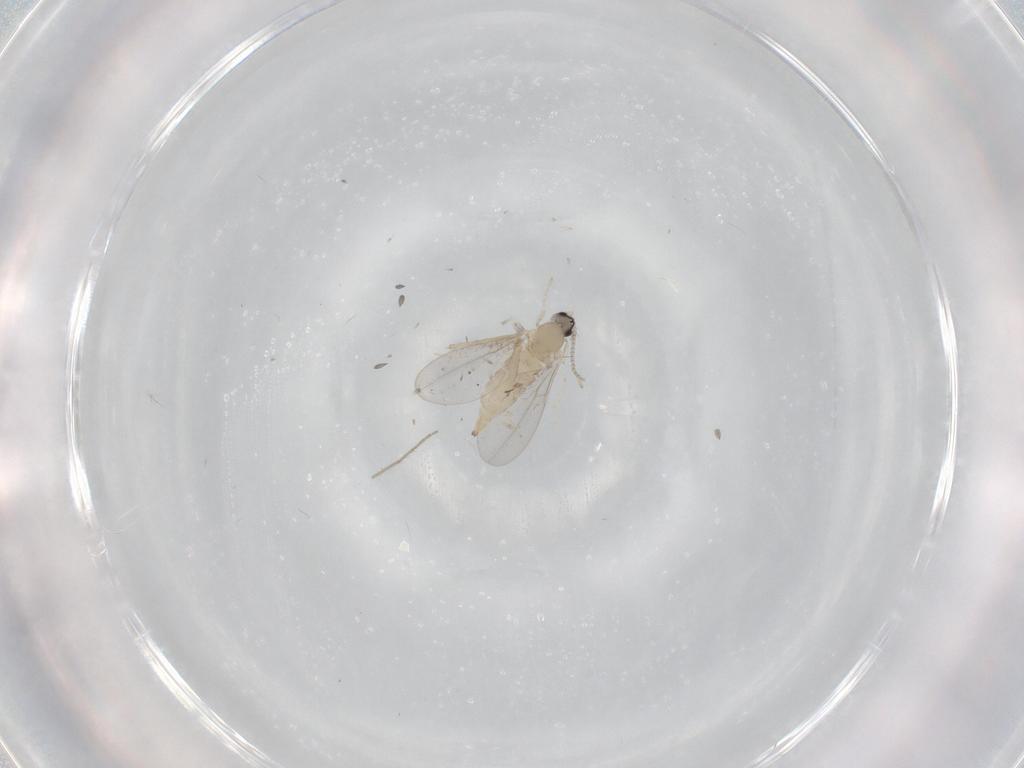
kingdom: Animalia
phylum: Arthropoda
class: Insecta
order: Diptera
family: Cecidomyiidae
